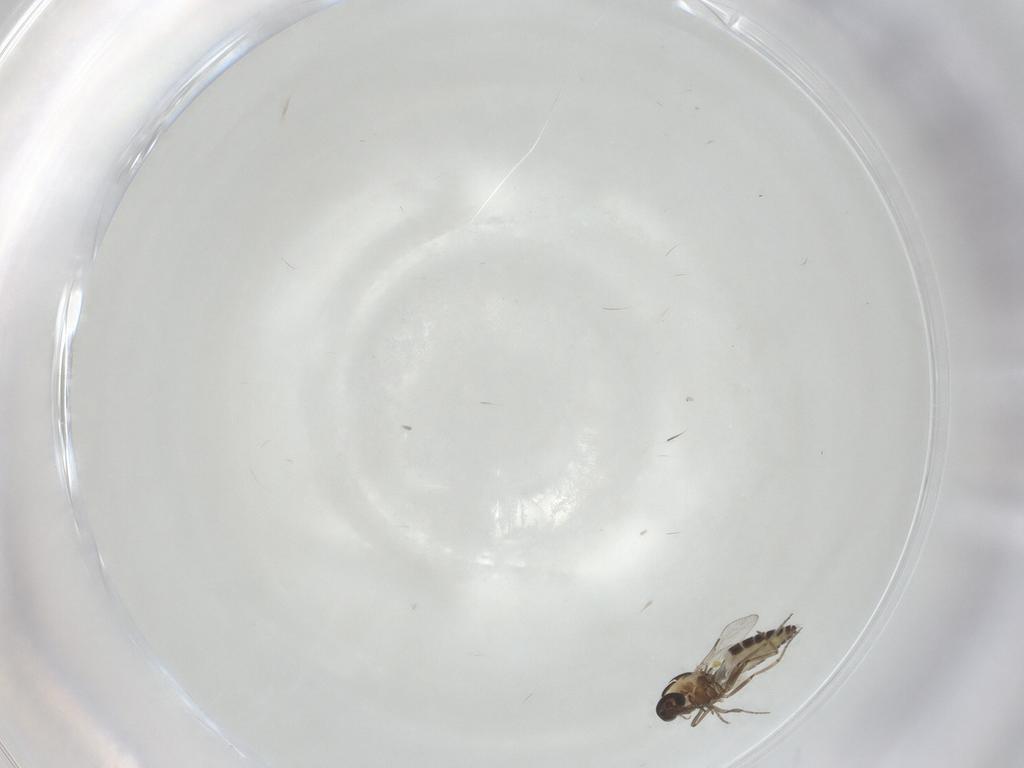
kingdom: Animalia
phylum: Arthropoda
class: Insecta
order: Diptera
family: Ceratopogonidae
